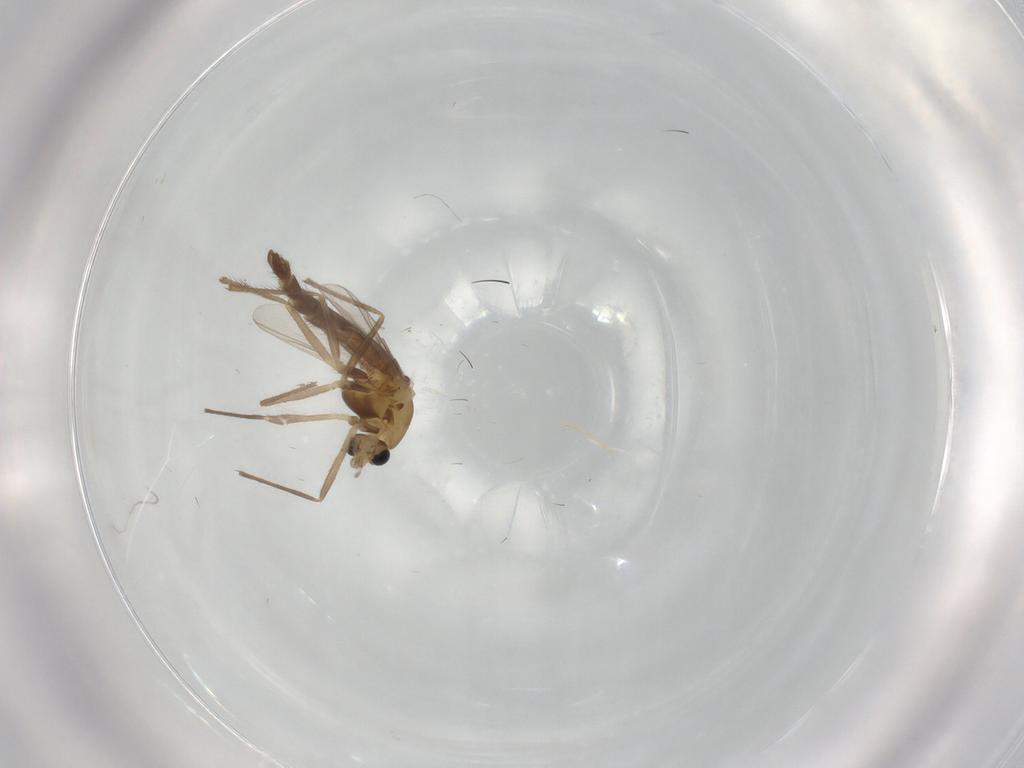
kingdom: Animalia
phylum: Arthropoda
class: Insecta
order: Diptera
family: Chironomidae
